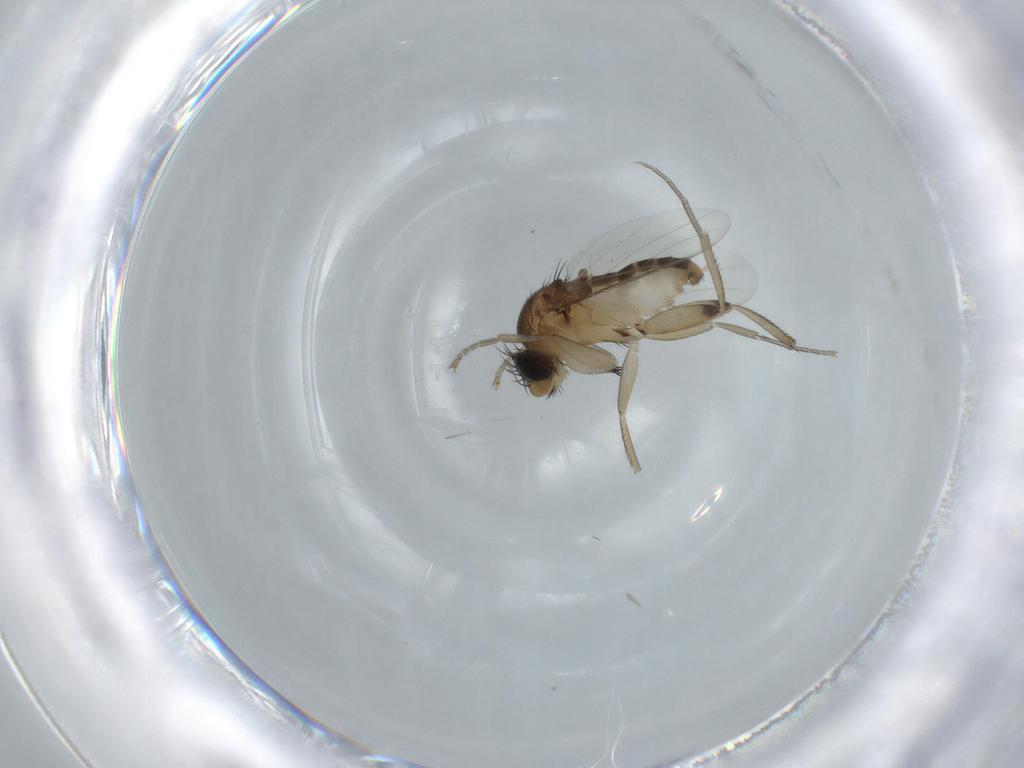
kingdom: Animalia
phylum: Arthropoda
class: Insecta
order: Diptera
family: Phoridae
